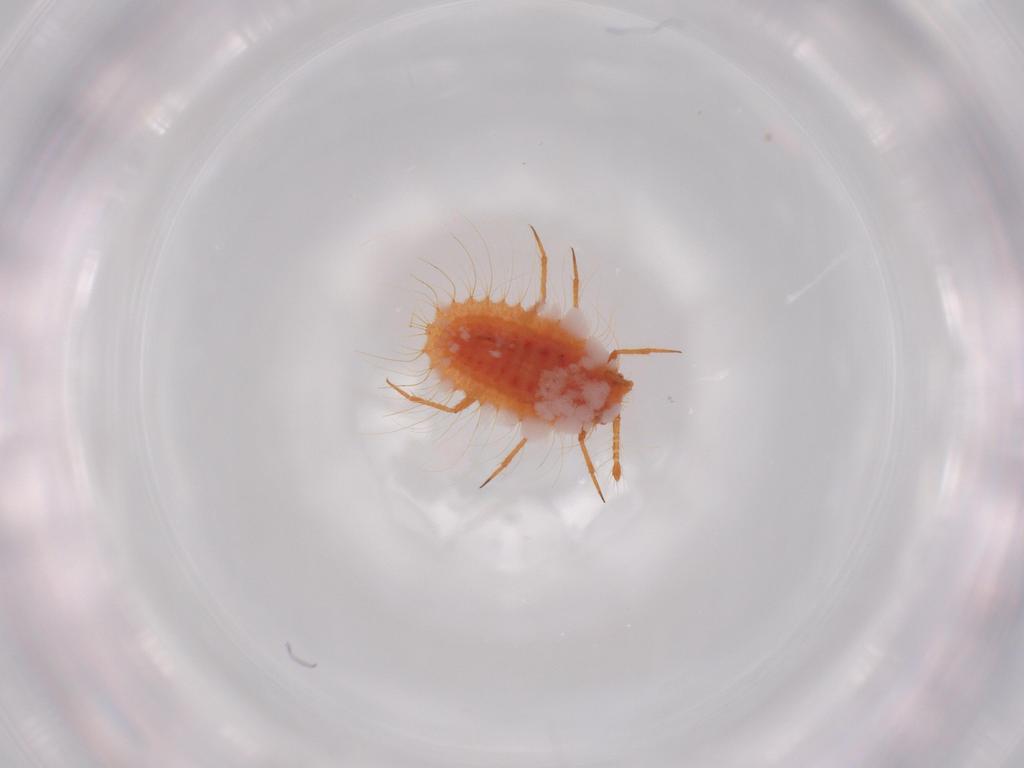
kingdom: Animalia
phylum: Arthropoda
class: Insecta
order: Hemiptera
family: Coccoidea_incertae_sedis
